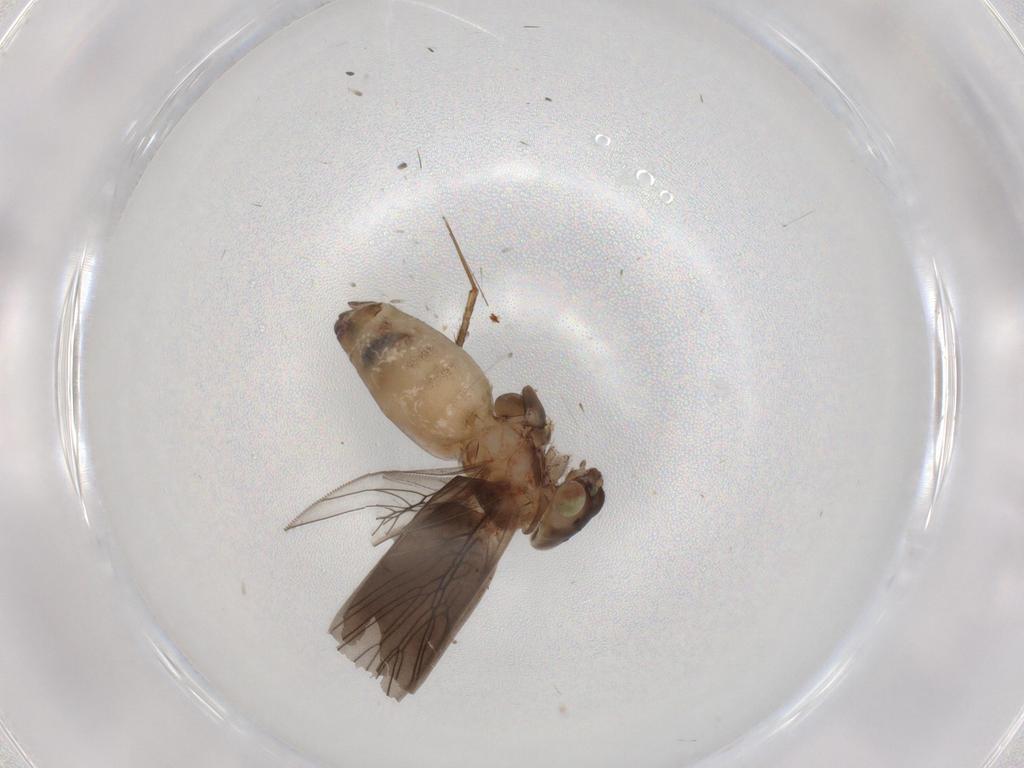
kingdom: Animalia
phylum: Arthropoda
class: Insecta
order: Psocodea
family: Lepidopsocidae
